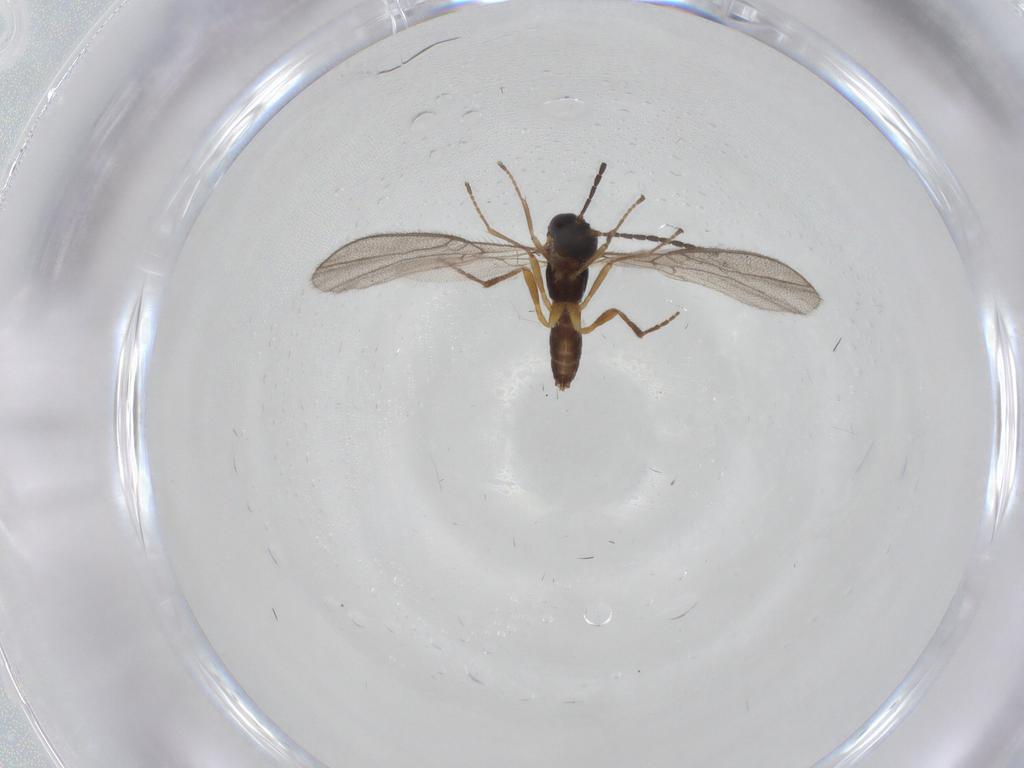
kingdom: Animalia
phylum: Arthropoda
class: Insecta
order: Hymenoptera
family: Braconidae
